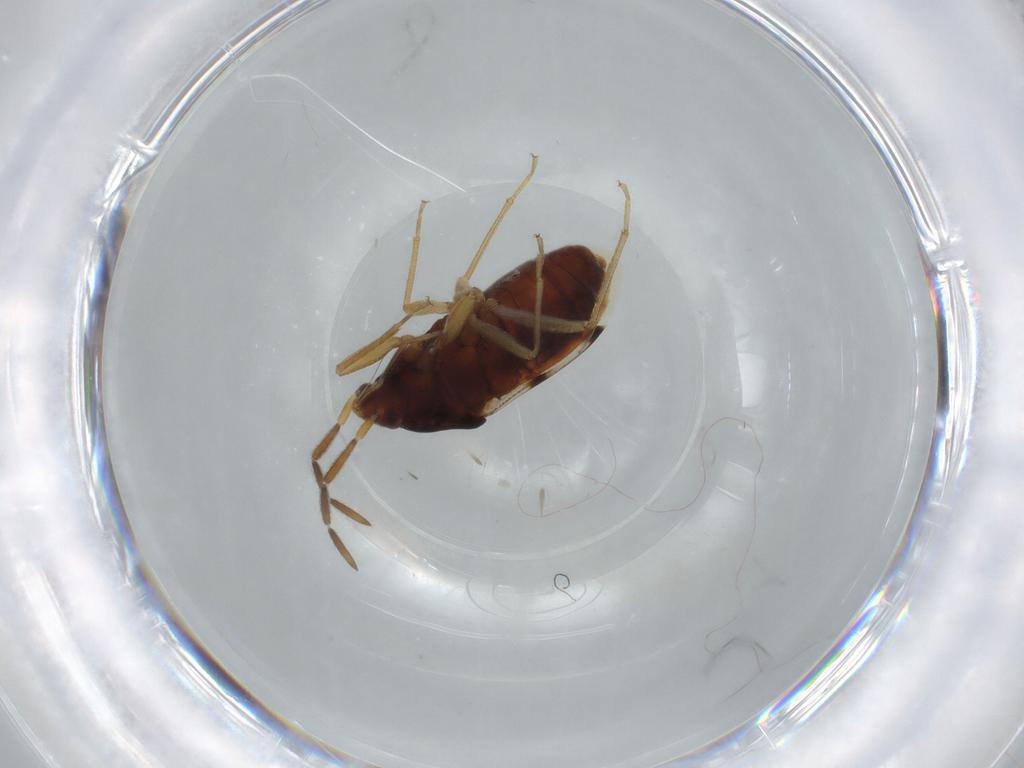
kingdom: Animalia
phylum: Arthropoda
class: Insecta
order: Hemiptera
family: Rhyparochromidae
